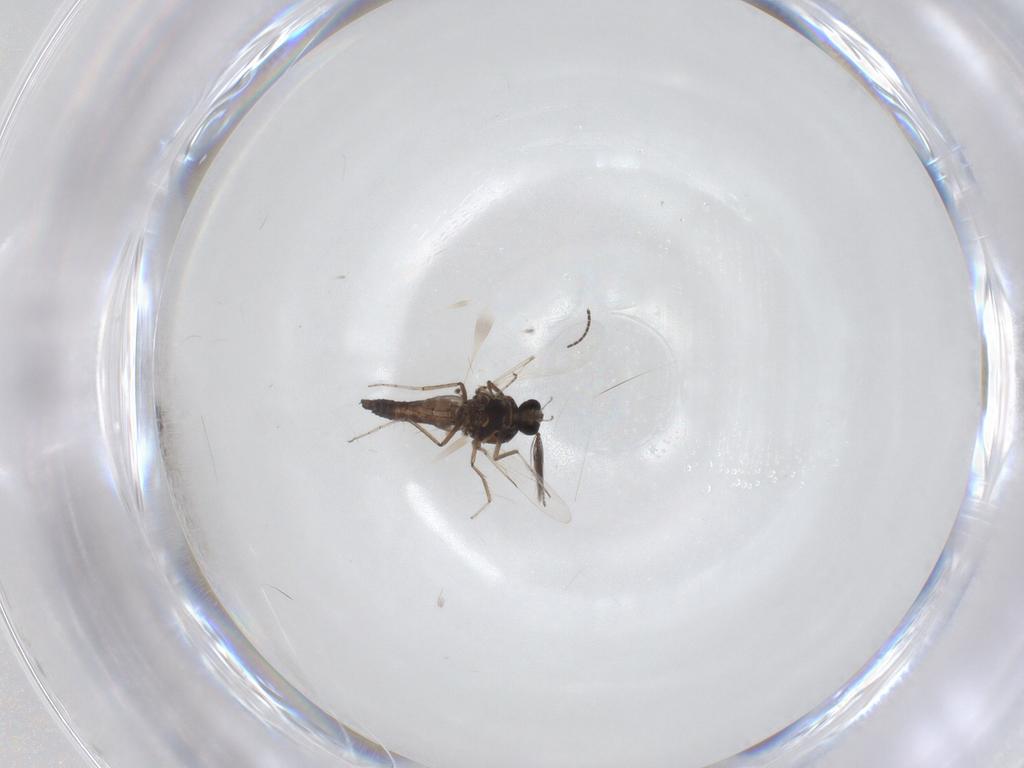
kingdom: Animalia
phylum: Arthropoda
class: Insecta
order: Diptera
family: Ceratopogonidae
